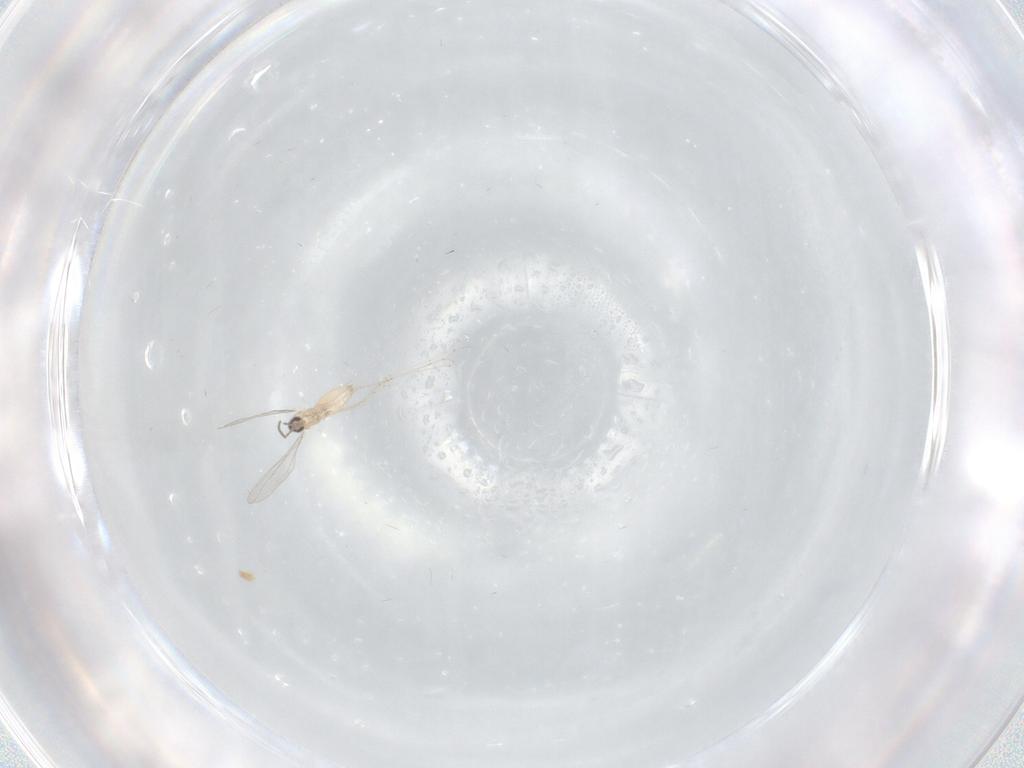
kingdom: Animalia
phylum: Arthropoda
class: Insecta
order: Diptera
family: Cecidomyiidae
